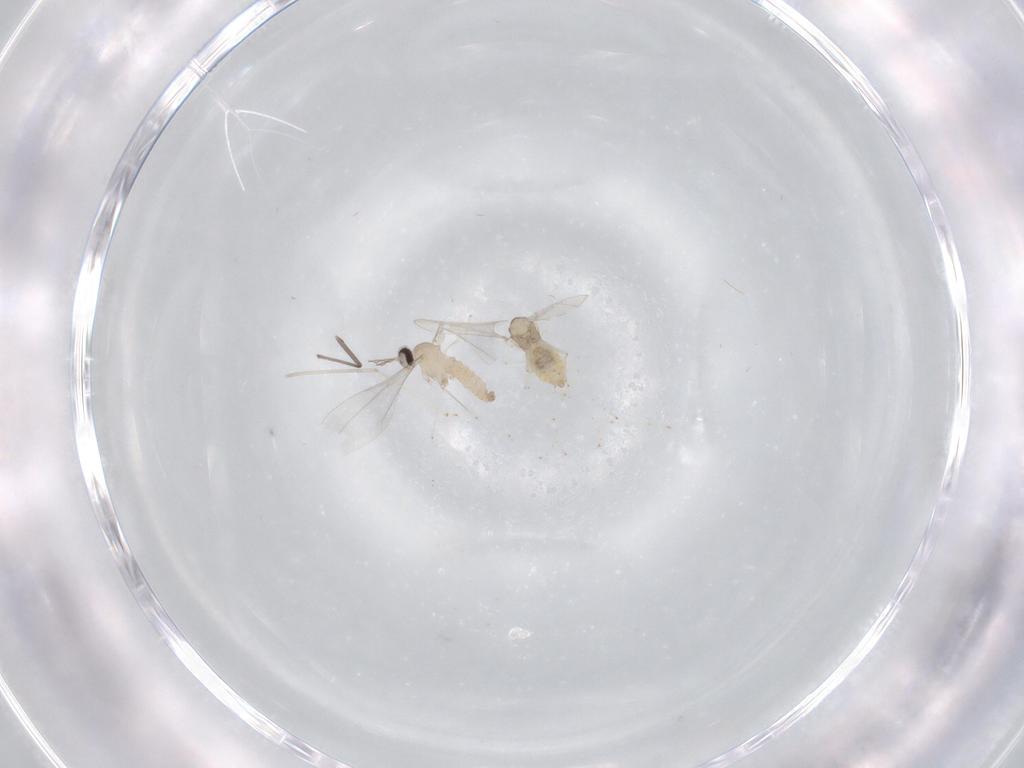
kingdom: Animalia
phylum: Arthropoda
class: Insecta
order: Diptera
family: Cecidomyiidae
